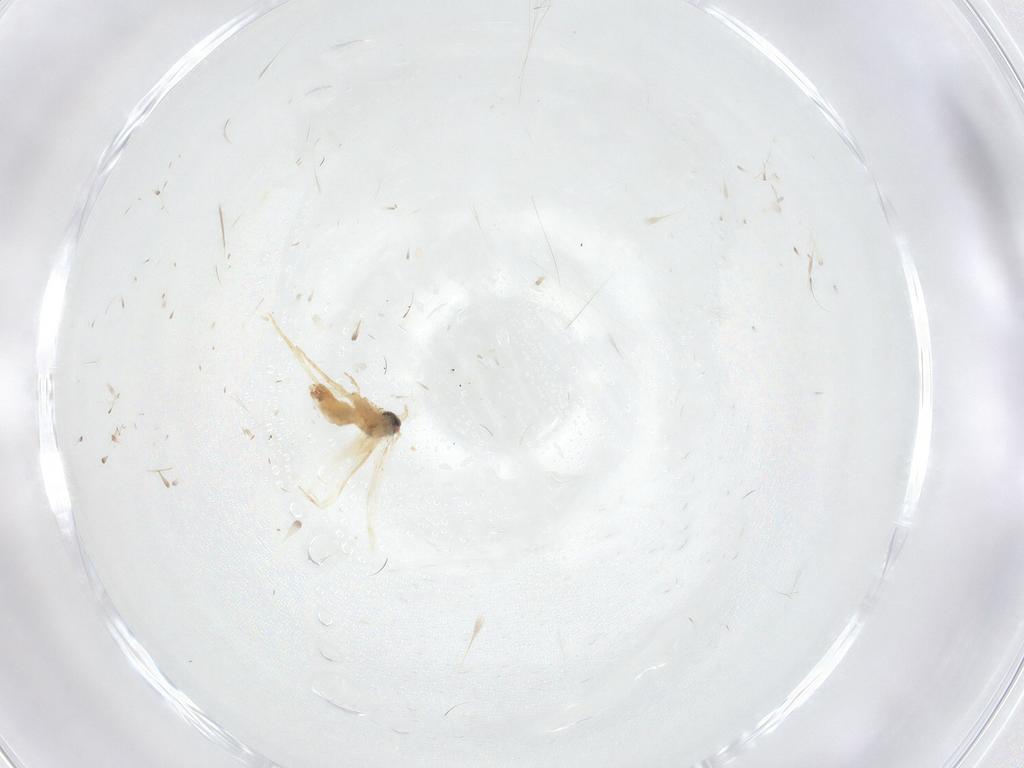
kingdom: Animalia
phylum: Arthropoda
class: Insecta
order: Lepidoptera
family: Crambidae
